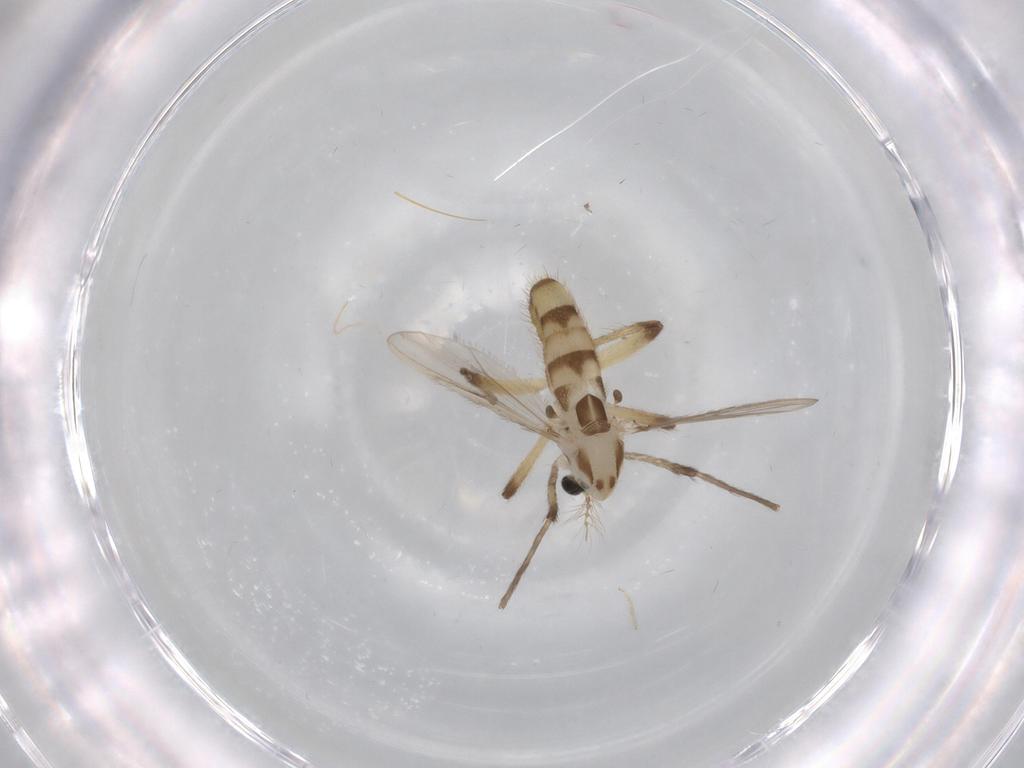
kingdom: Animalia
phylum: Arthropoda
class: Insecta
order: Diptera
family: Chironomidae
